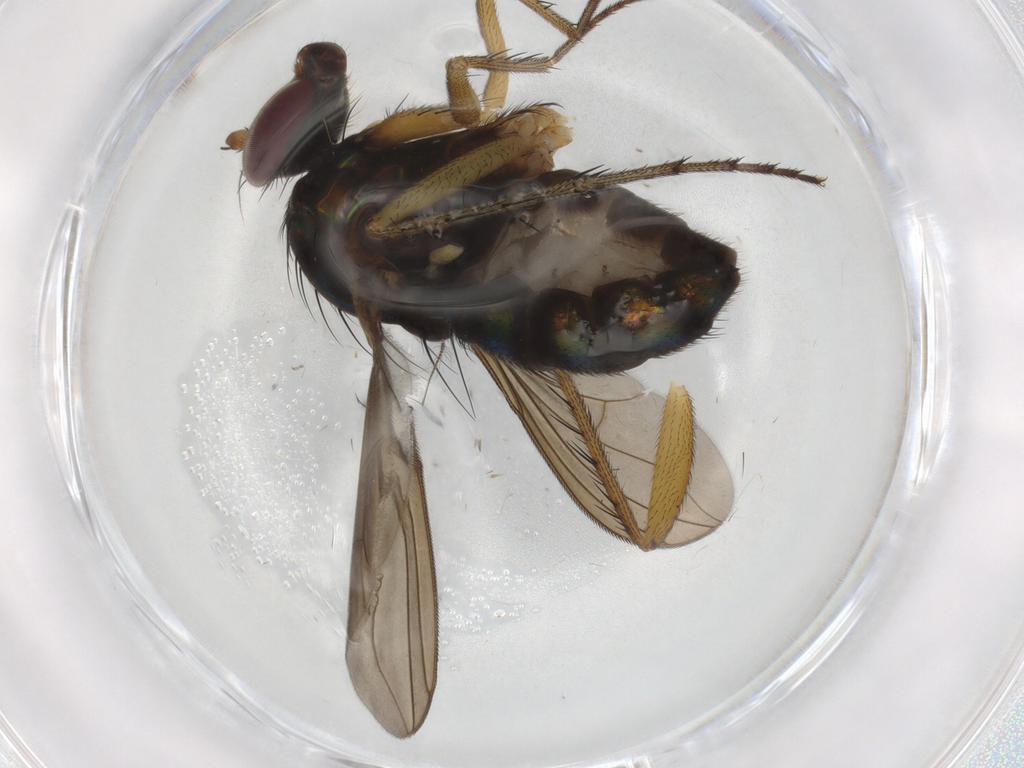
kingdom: Animalia
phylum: Arthropoda
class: Insecta
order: Diptera
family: Dolichopodidae
